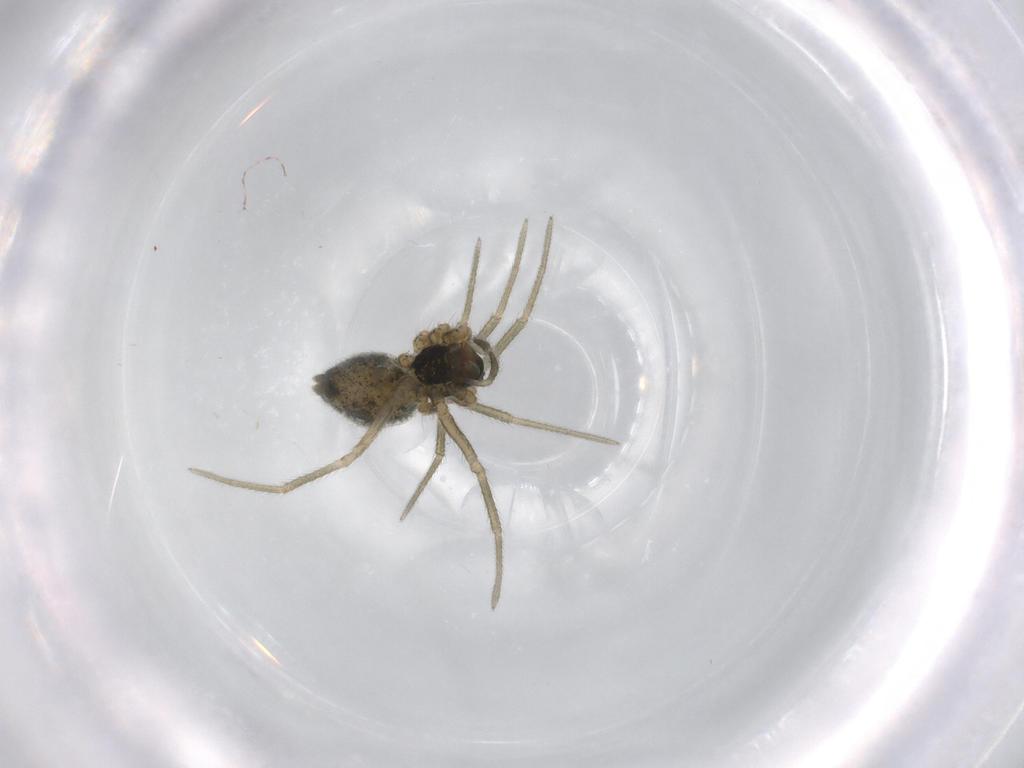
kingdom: Animalia
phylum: Arthropoda
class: Arachnida
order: Araneae
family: Linyphiidae
